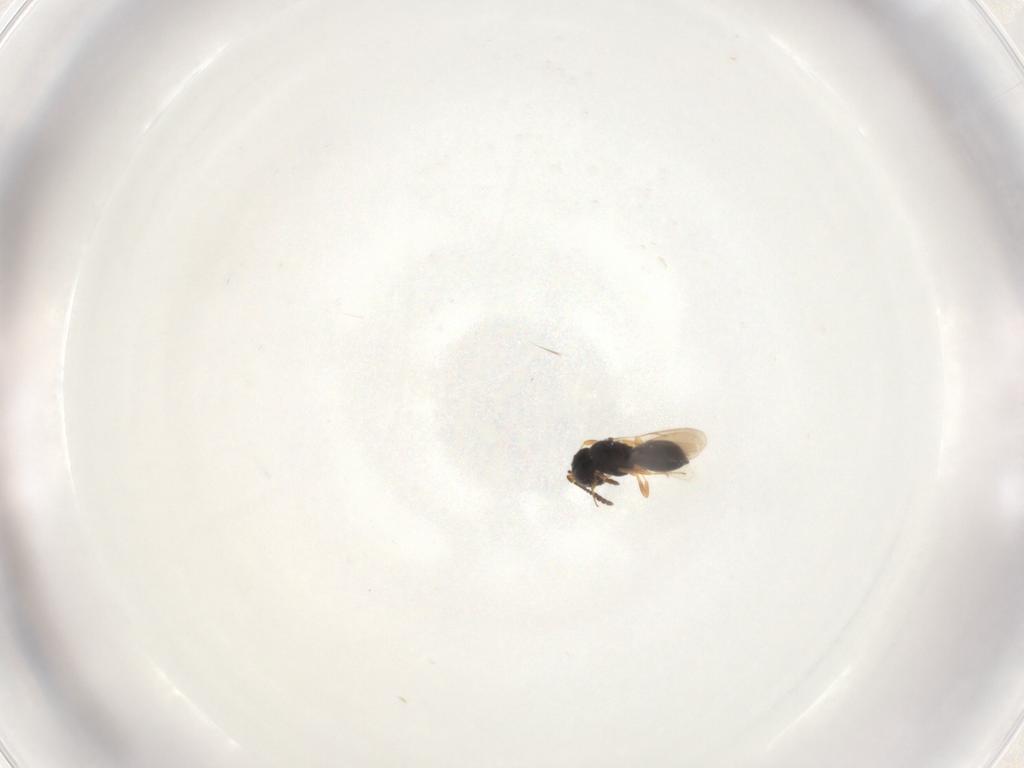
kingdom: Animalia
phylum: Arthropoda
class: Insecta
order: Hymenoptera
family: Scelionidae
